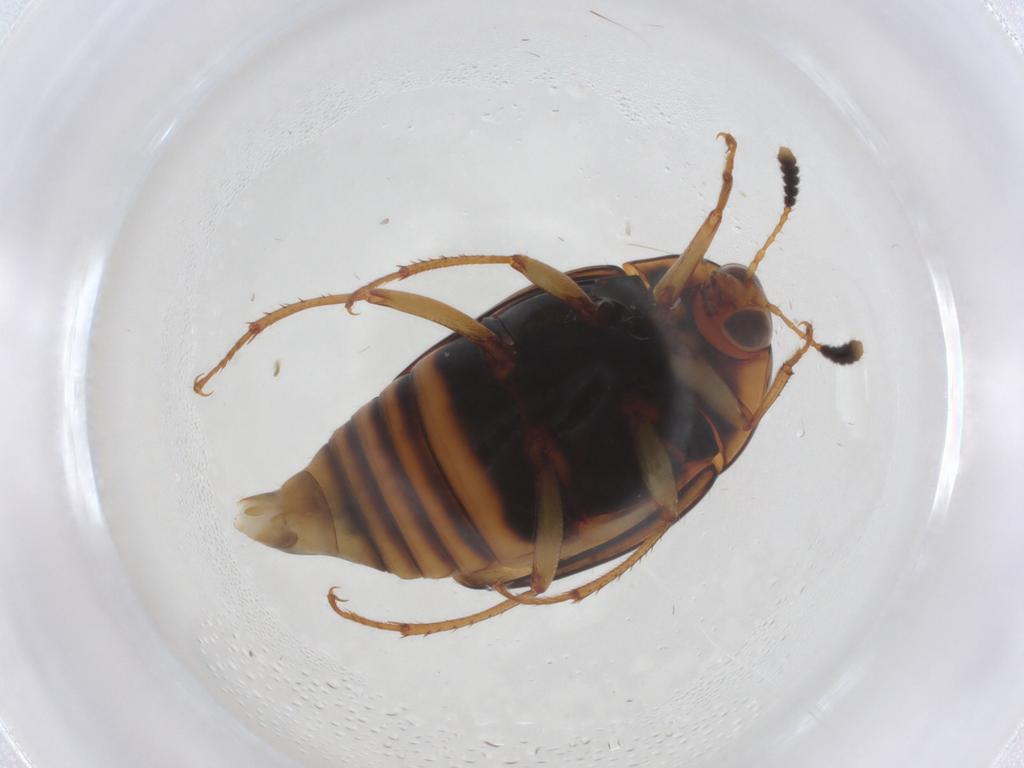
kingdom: Animalia
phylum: Arthropoda
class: Insecta
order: Coleoptera
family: Staphylinidae
